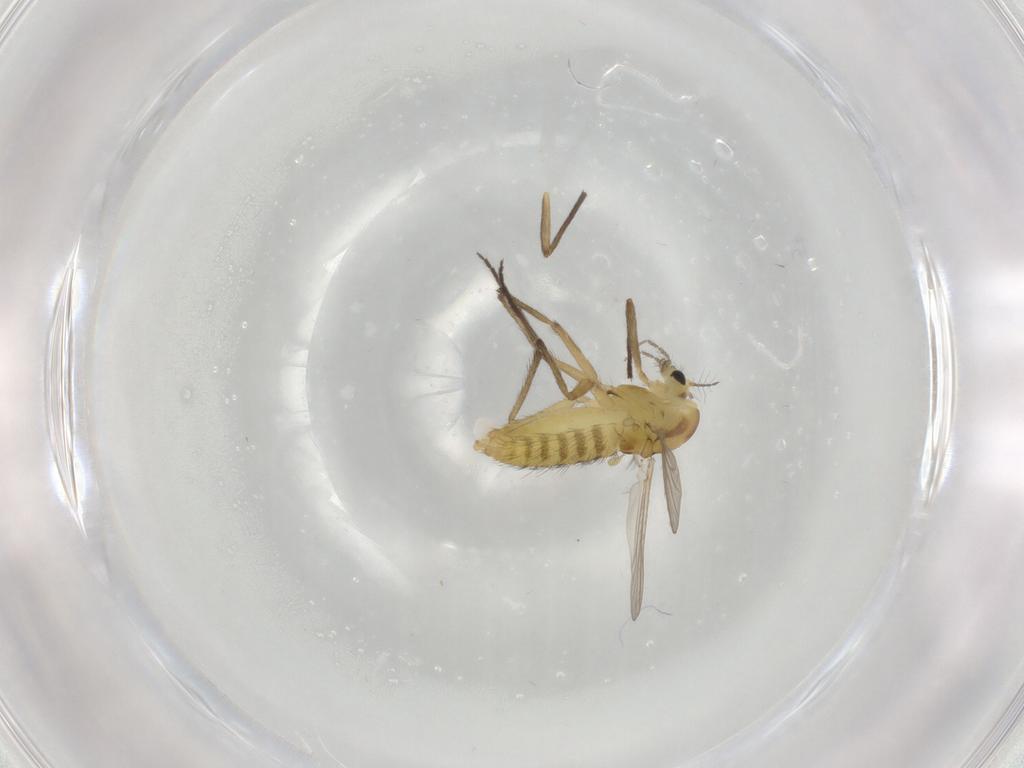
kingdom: Animalia
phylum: Arthropoda
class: Insecta
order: Diptera
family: Chironomidae
